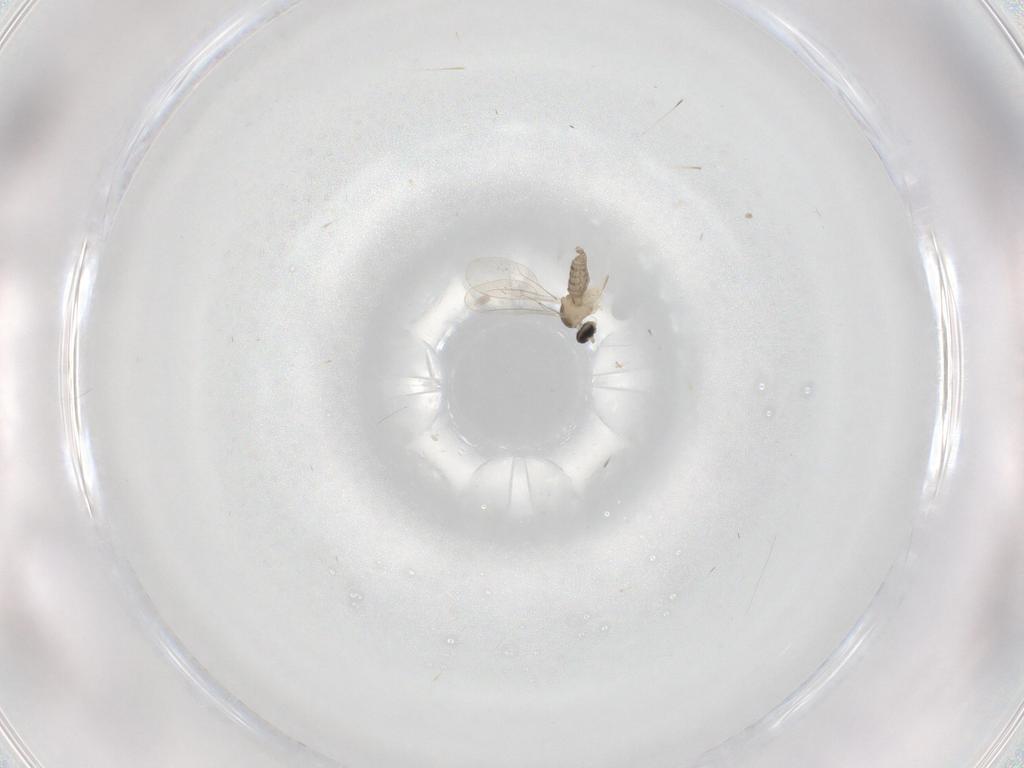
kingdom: Animalia
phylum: Arthropoda
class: Insecta
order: Diptera
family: Cecidomyiidae
